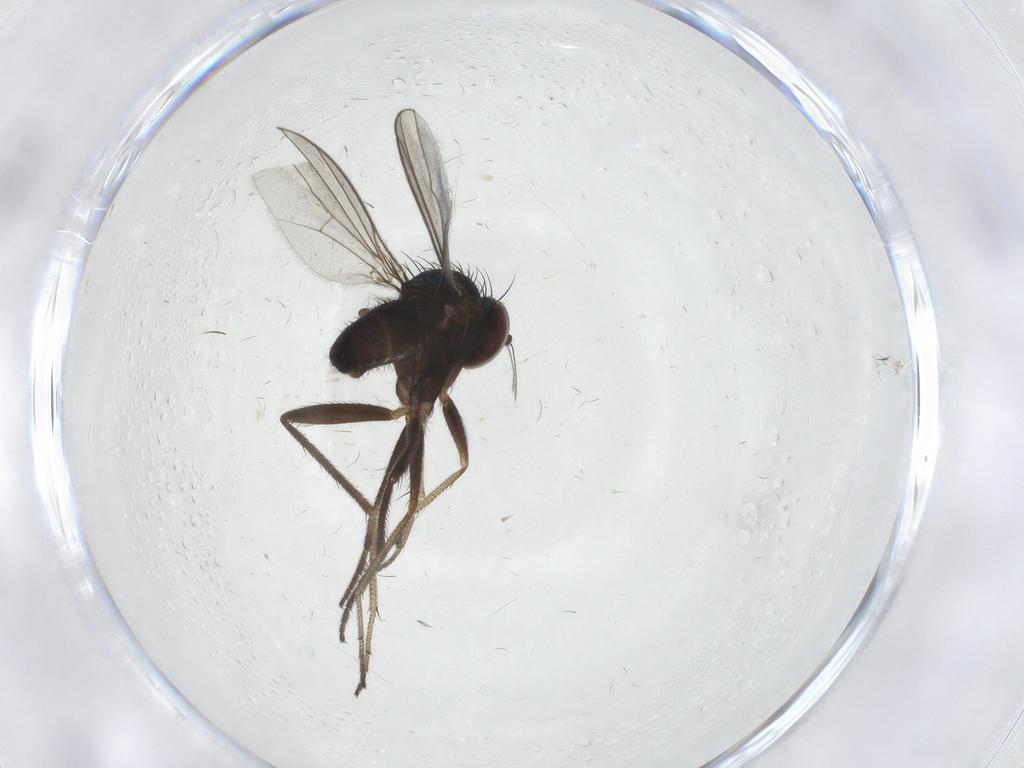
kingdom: Animalia
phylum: Arthropoda
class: Insecta
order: Diptera
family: Dolichopodidae
